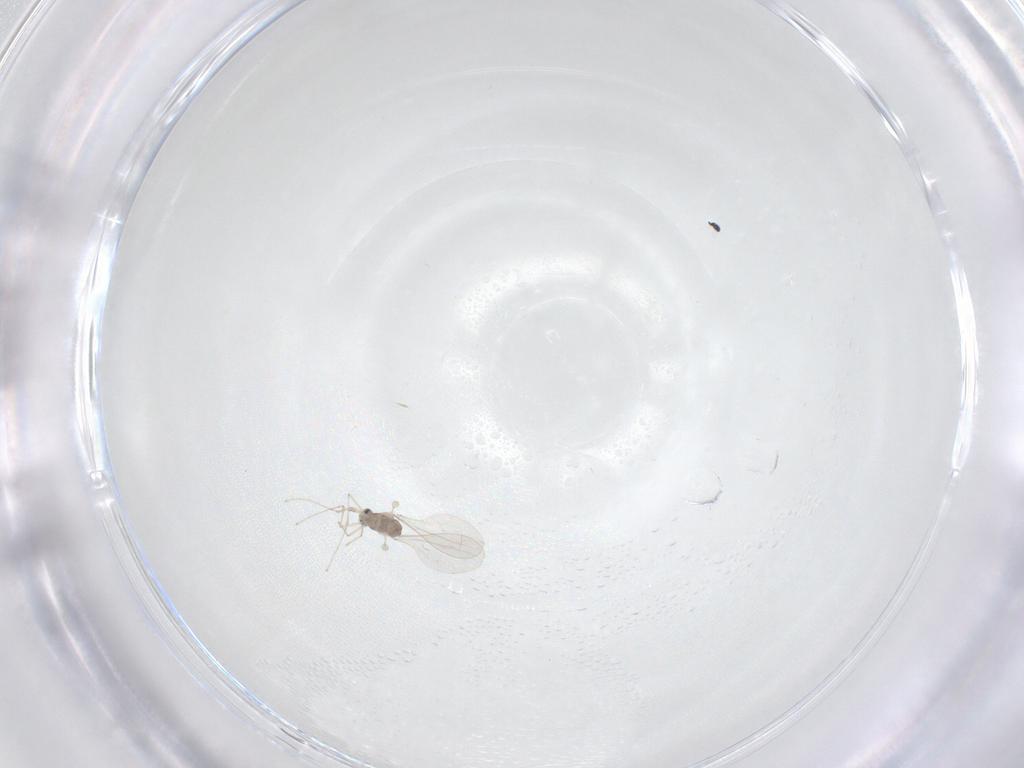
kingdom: Animalia
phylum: Arthropoda
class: Insecta
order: Diptera
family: Cecidomyiidae
